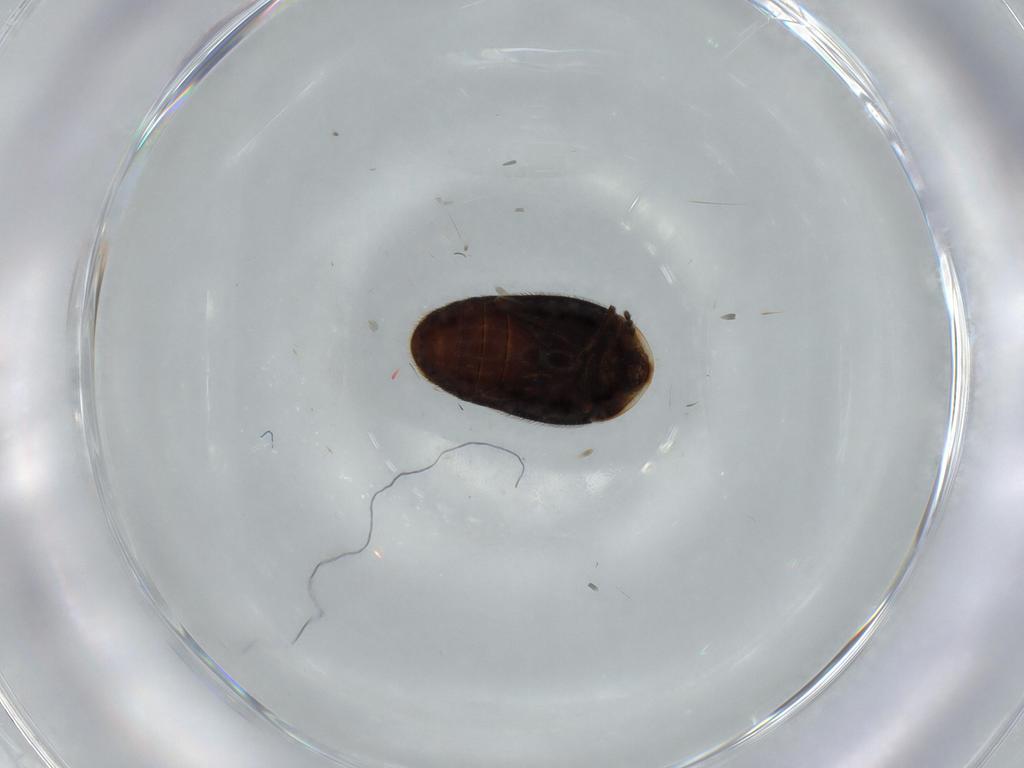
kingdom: Animalia
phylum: Arthropoda
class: Insecta
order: Coleoptera
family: Corylophidae
